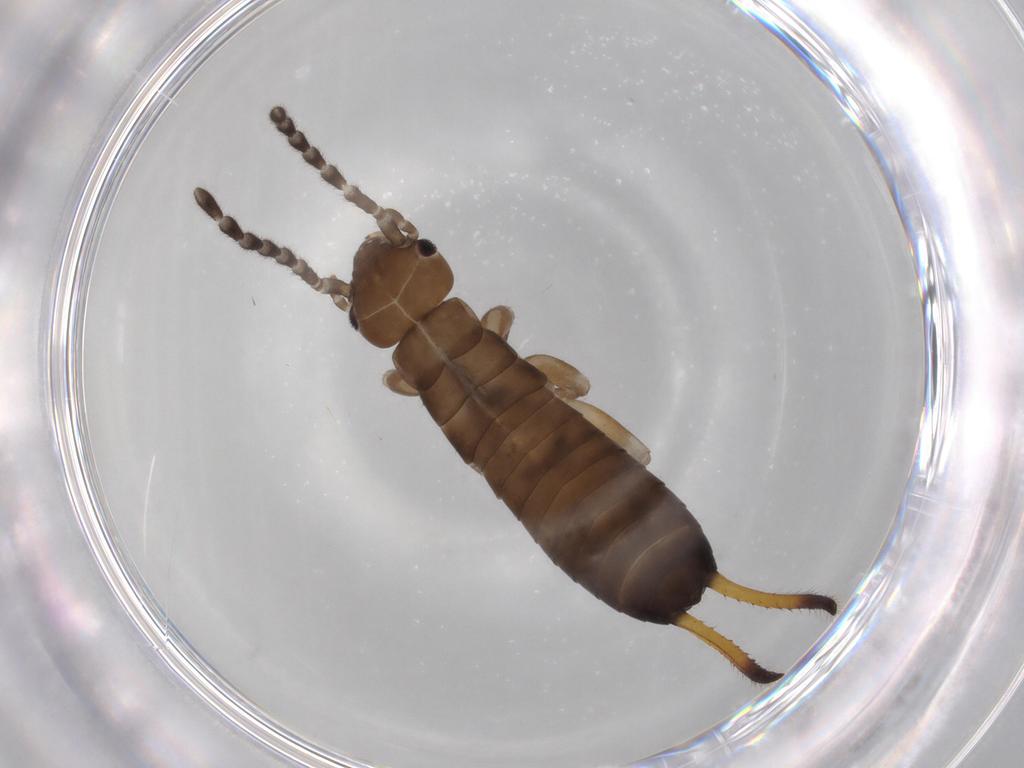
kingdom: Animalia
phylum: Arthropoda
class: Insecta
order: Dermaptera
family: Forficulidae
